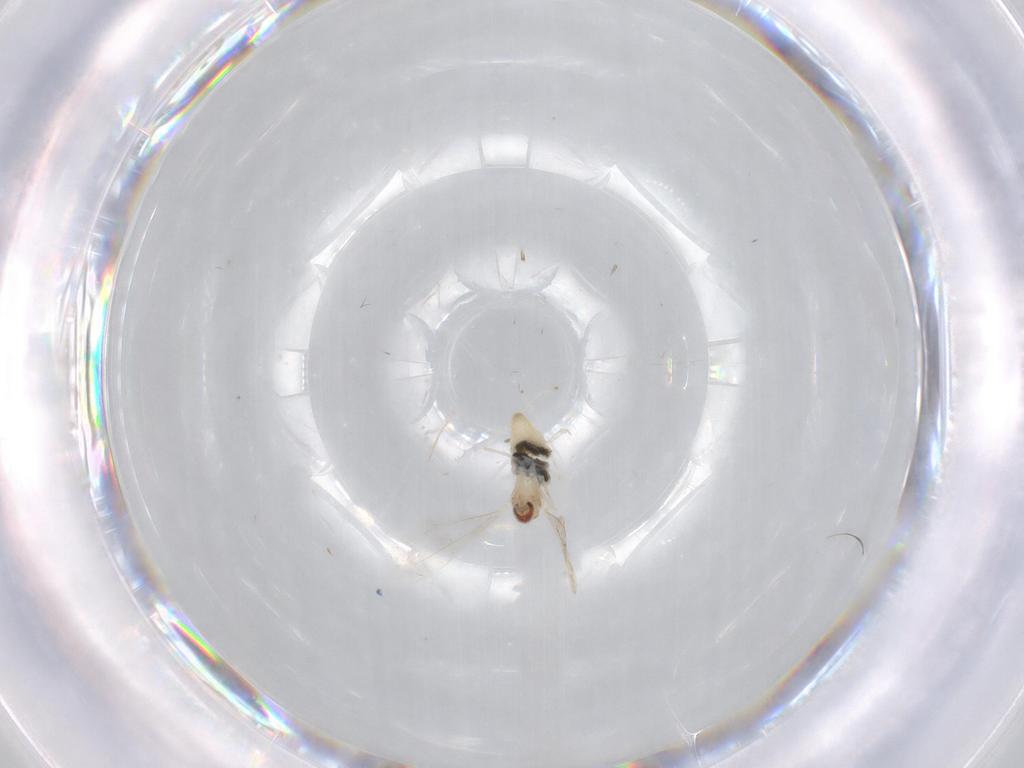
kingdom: Animalia
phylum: Arthropoda
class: Insecta
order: Diptera
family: Cecidomyiidae
